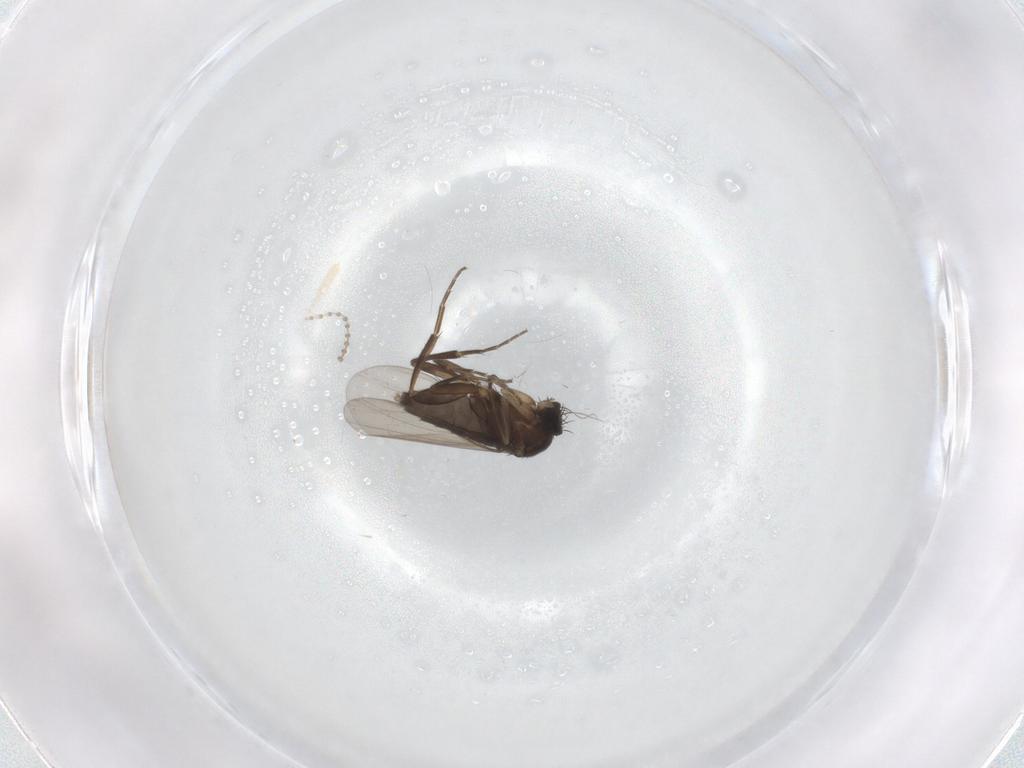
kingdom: Animalia
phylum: Arthropoda
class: Insecta
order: Diptera
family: Phoridae
